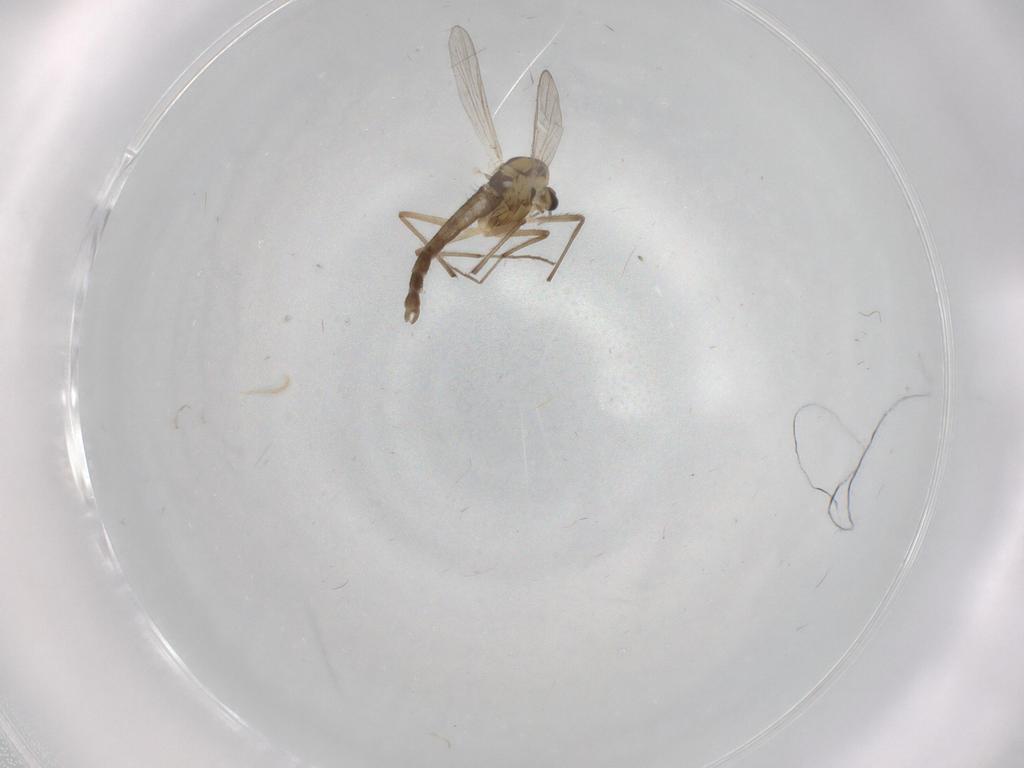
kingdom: Animalia
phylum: Arthropoda
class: Insecta
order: Diptera
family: Chironomidae
